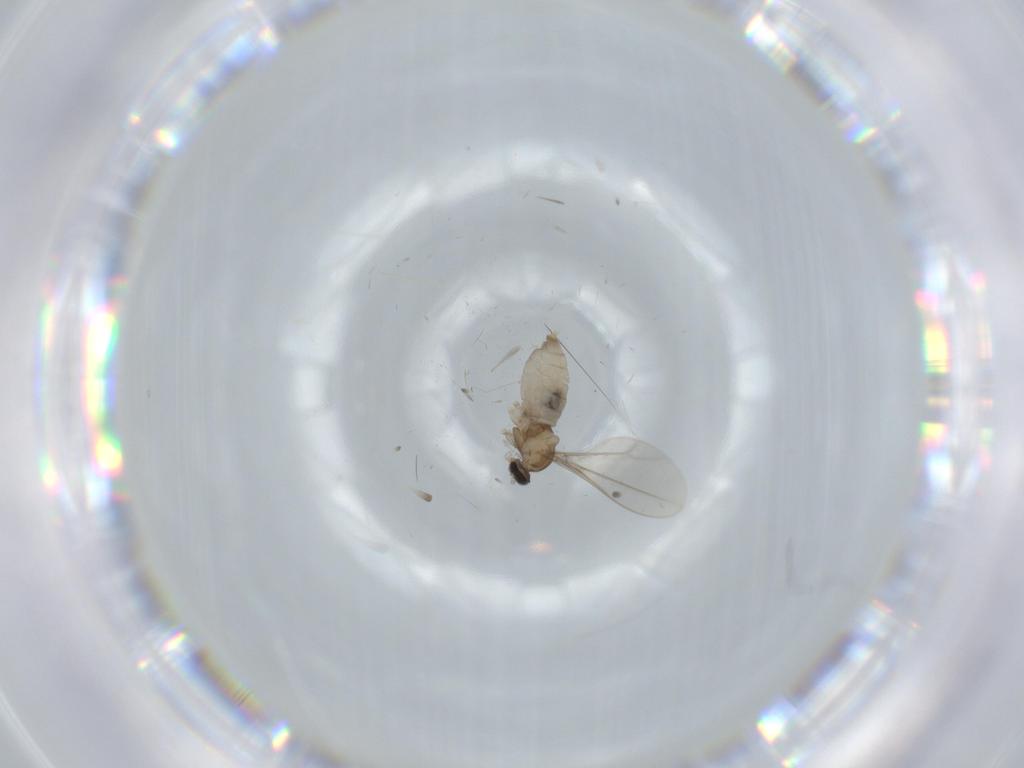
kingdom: Animalia
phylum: Arthropoda
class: Insecta
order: Diptera
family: Cecidomyiidae
